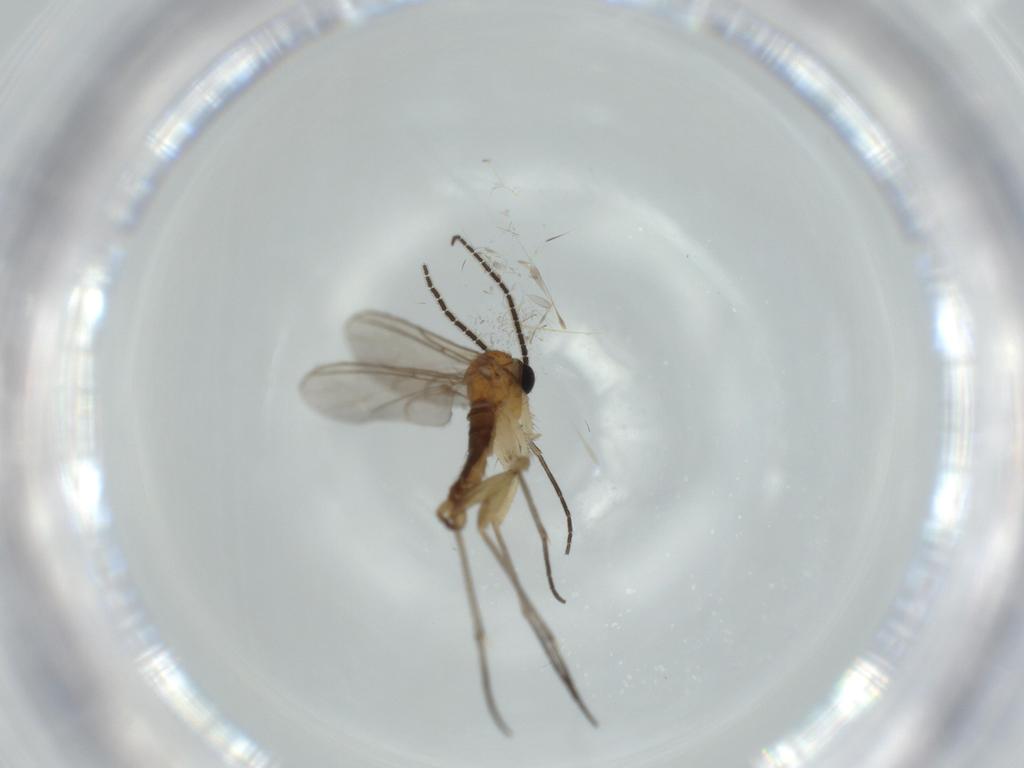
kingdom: Animalia
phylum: Arthropoda
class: Insecta
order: Diptera
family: Sciaridae
